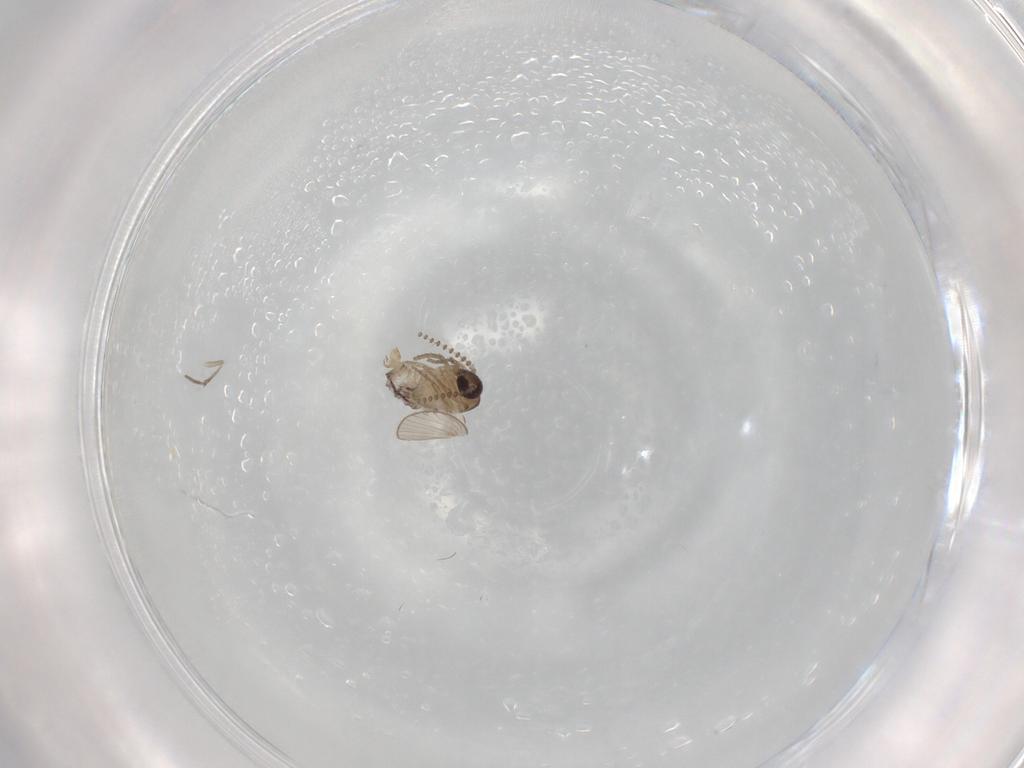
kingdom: Animalia
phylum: Arthropoda
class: Insecta
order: Diptera
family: Psychodidae
